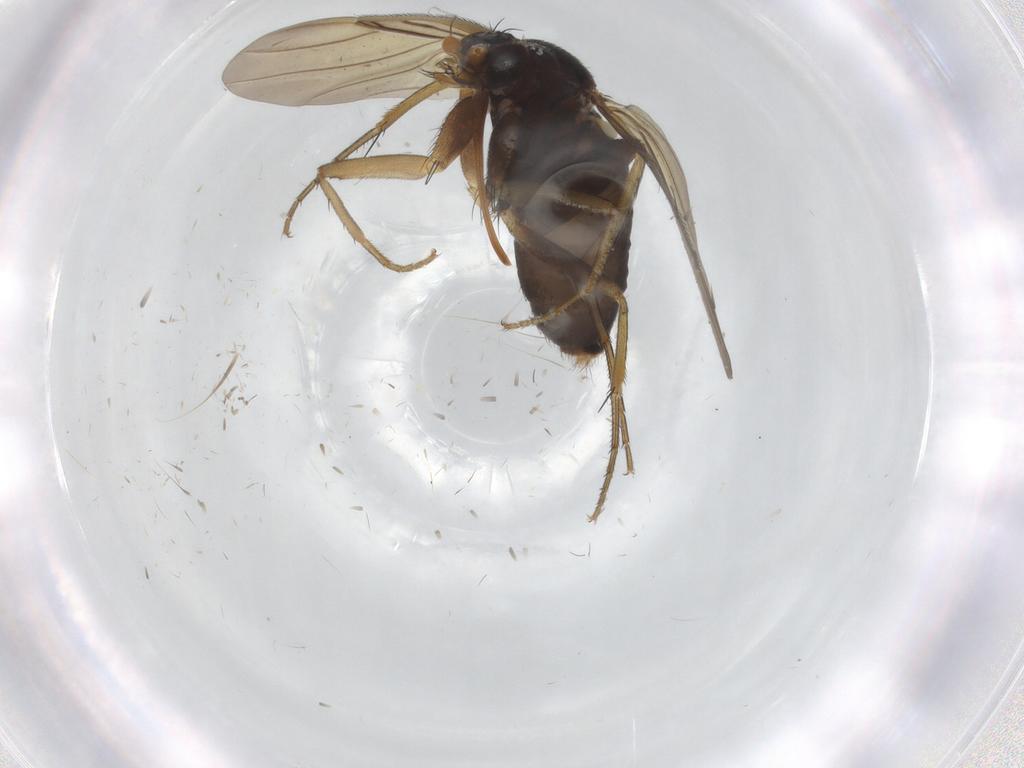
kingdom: Animalia
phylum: Arthropoda
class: Insecta
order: Diptera
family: Phoridae
